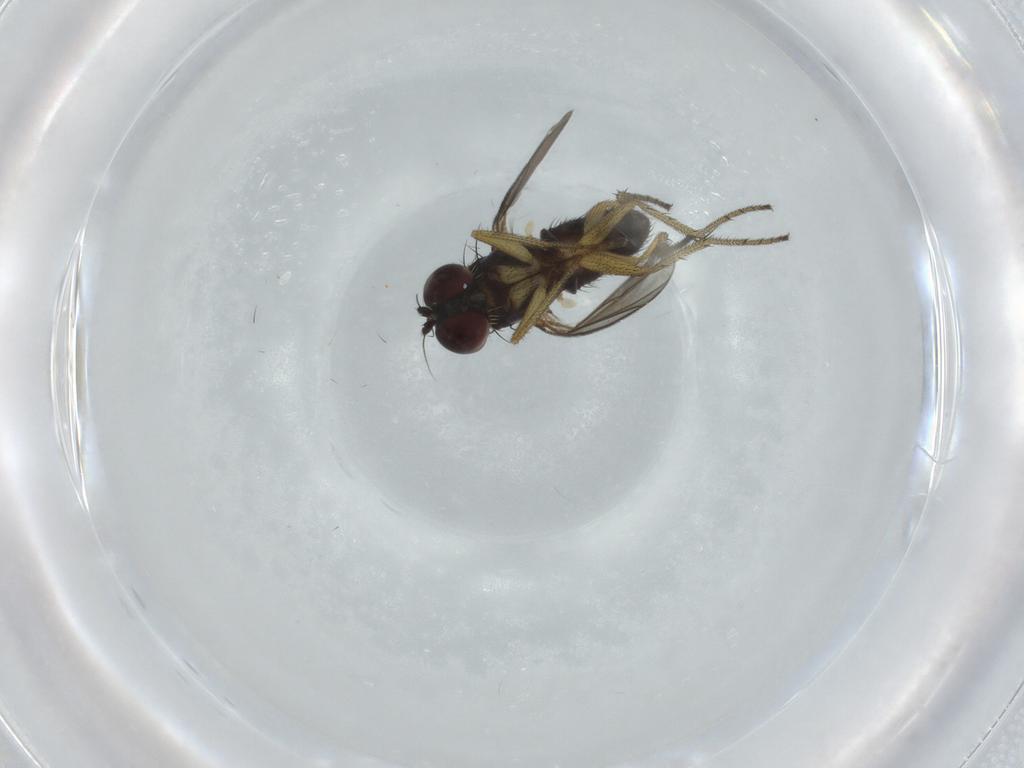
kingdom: Animalia
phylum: Arthropoda
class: Insecta
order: Diptera
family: Dolichopodidae
